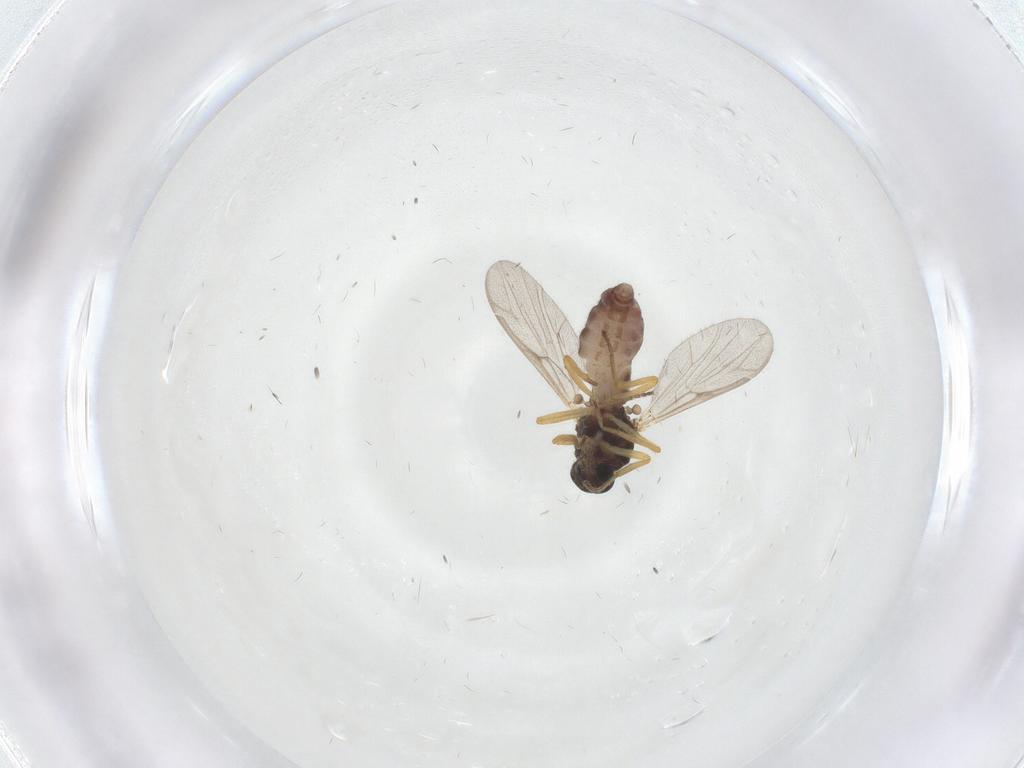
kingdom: Animalia
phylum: Arthropoda
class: Insecta
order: Diptera
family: Ceratopogonidae
